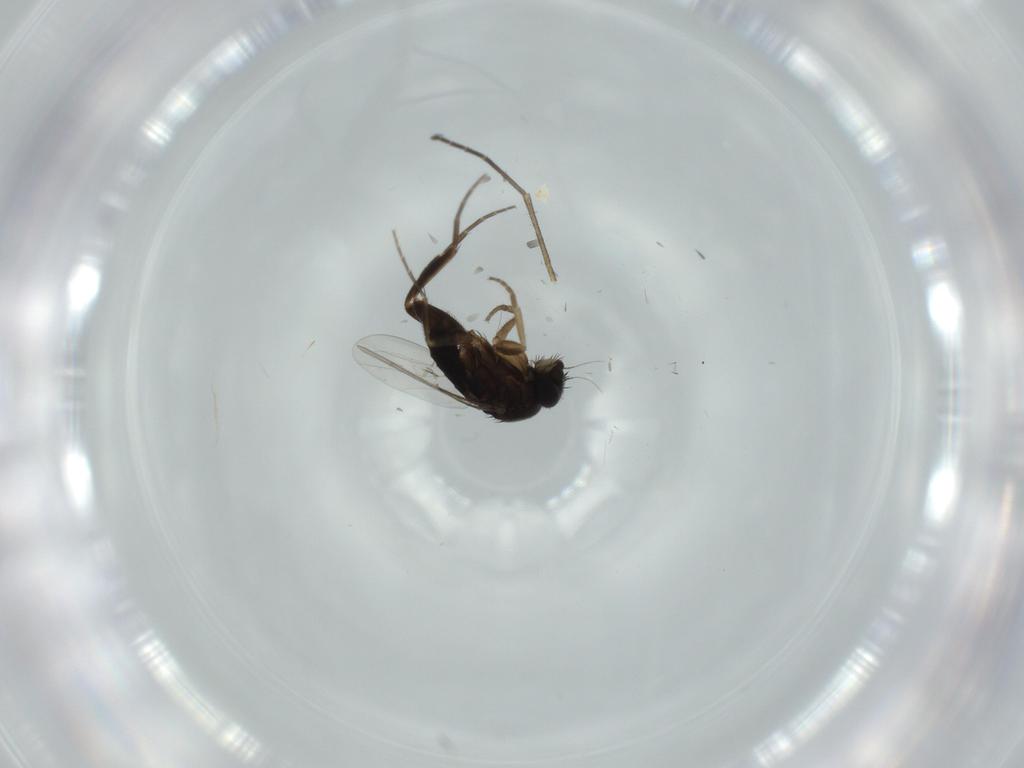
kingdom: Animalia
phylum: Arthropoda
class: Insecta
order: Diptera
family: Phoridae
